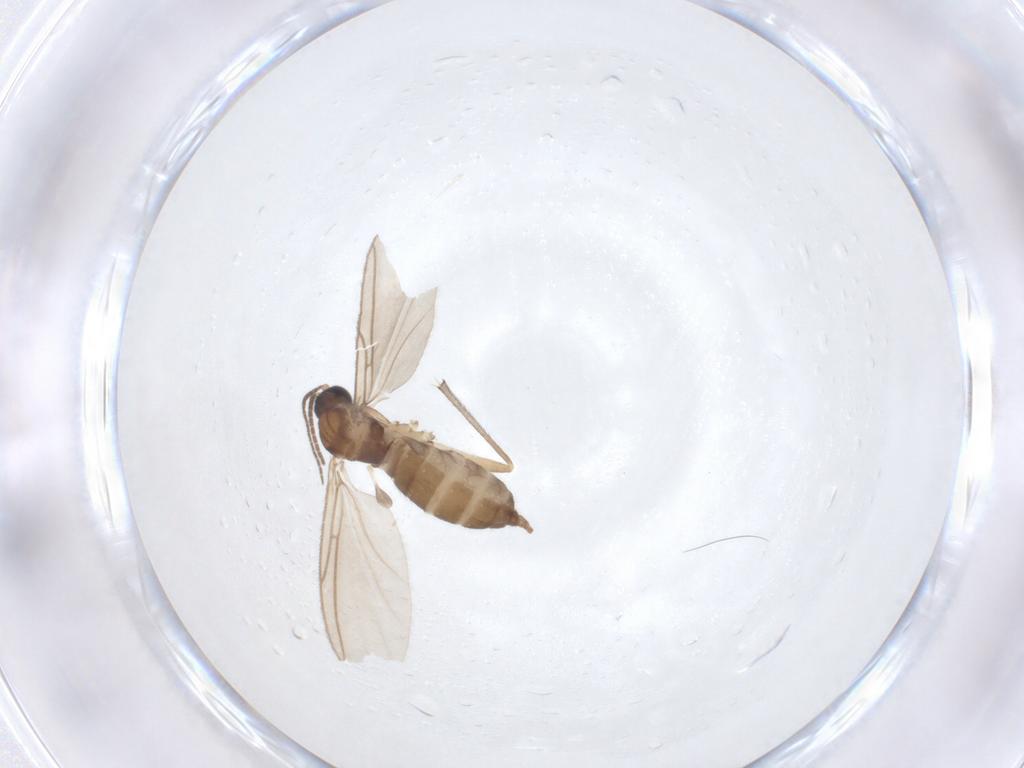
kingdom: Animalia
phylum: Arthropoda
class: Insecta
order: Diptera
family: Sciaridae
